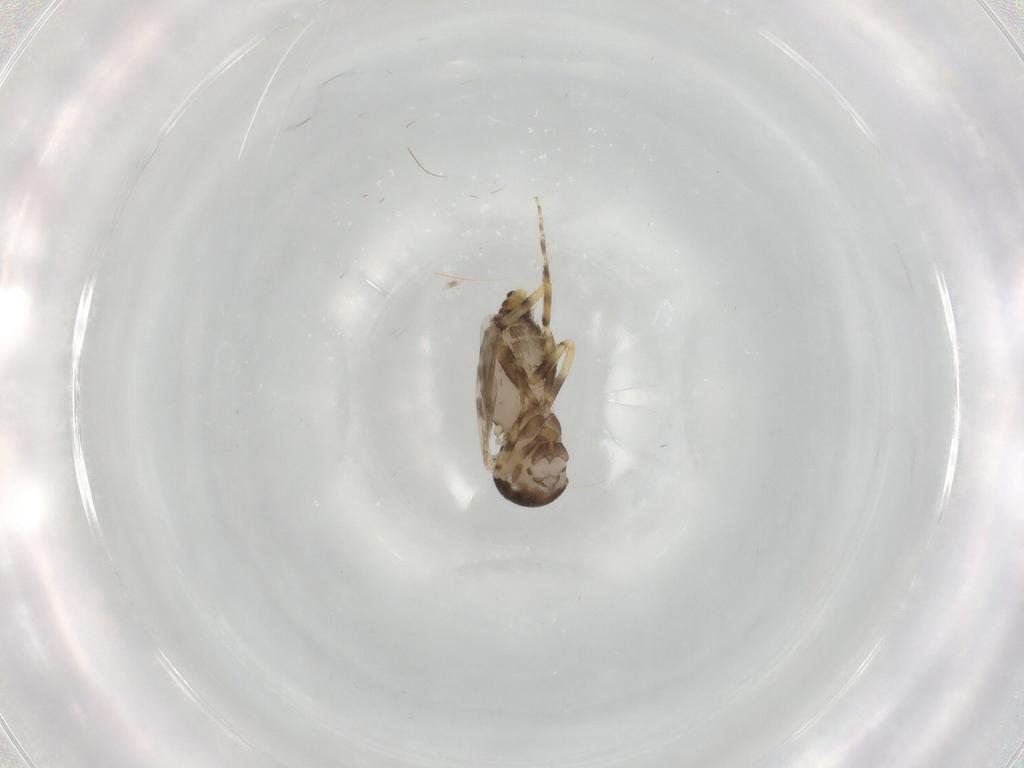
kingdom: Animalia
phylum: Arthropoda
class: Insecta
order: Diptera
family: Ceratopogonidae
